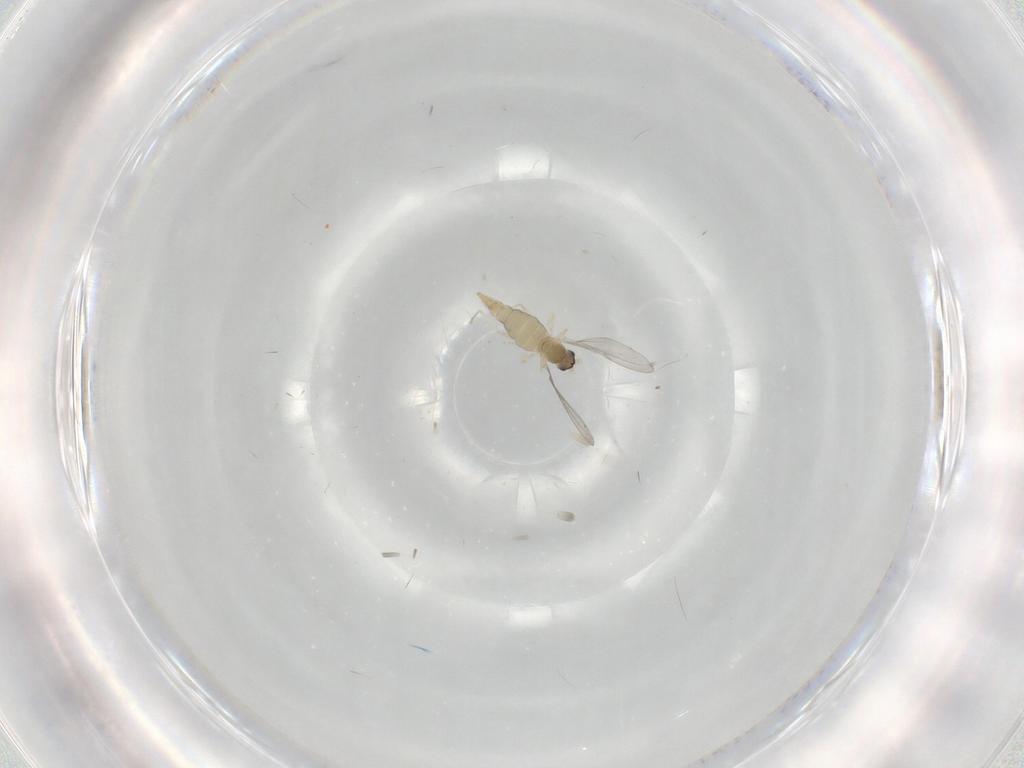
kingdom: Animalia
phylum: Arthropoda
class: Insecta
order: Diptera
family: Cecidomyiidae
